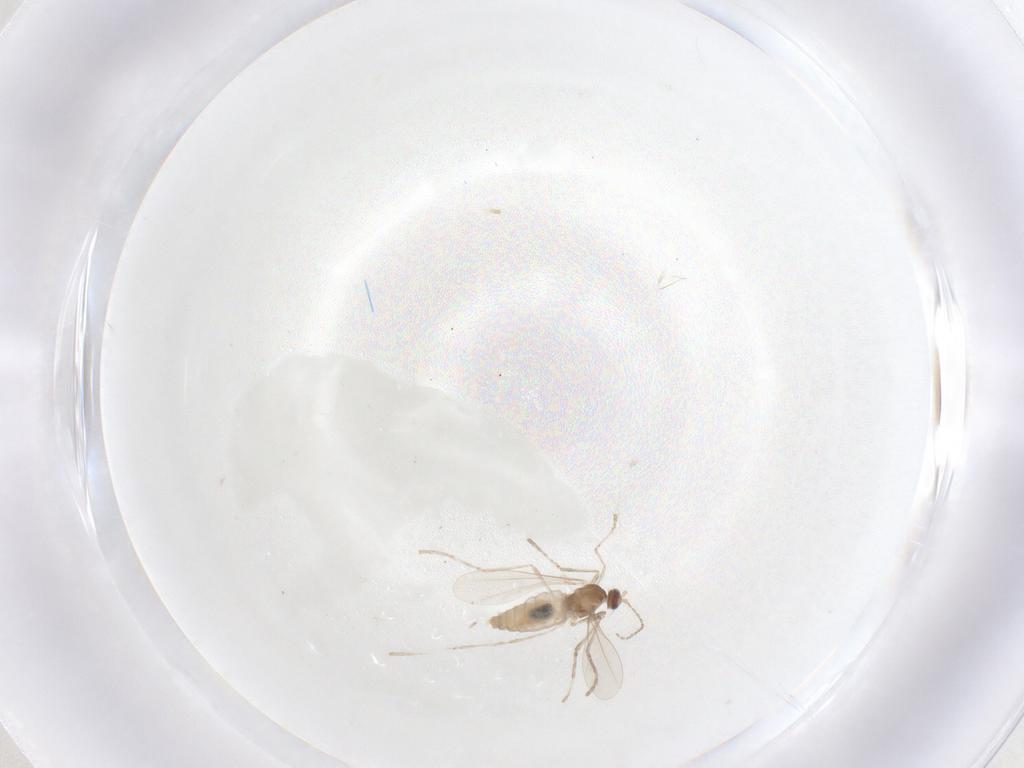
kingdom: Animalia
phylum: Arthropoda
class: Insecta
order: Diptera
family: Cecidomyiidae
